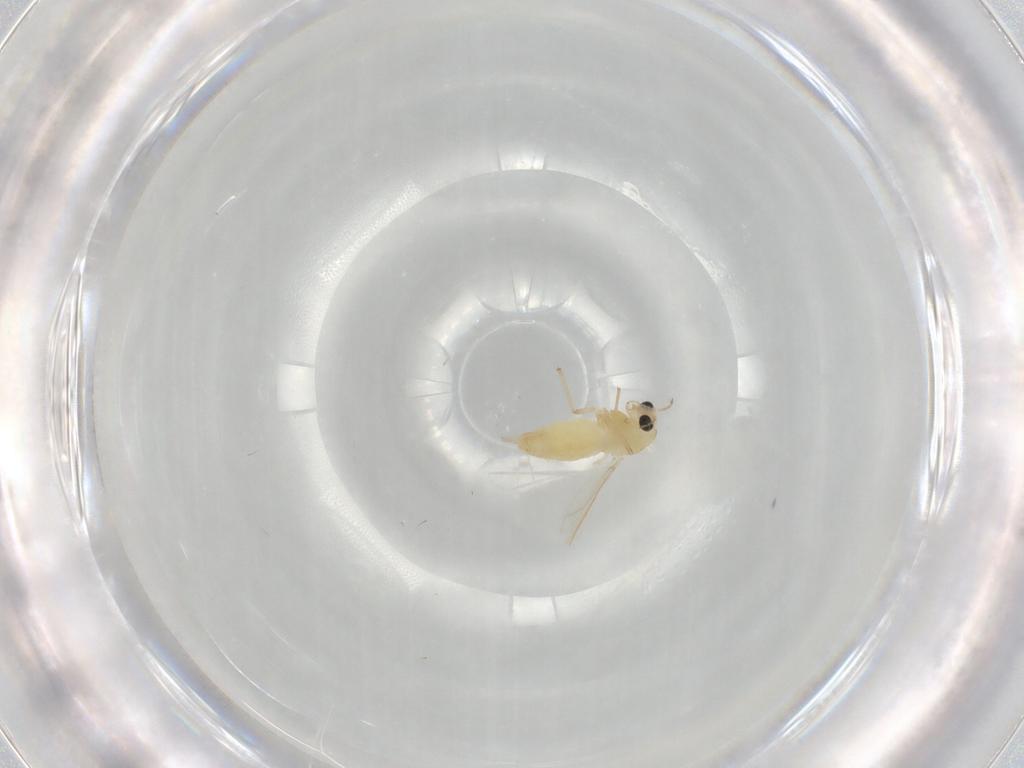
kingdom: Animalia
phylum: Arthropoda
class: Insecta
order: Diptera
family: Chironomidae
